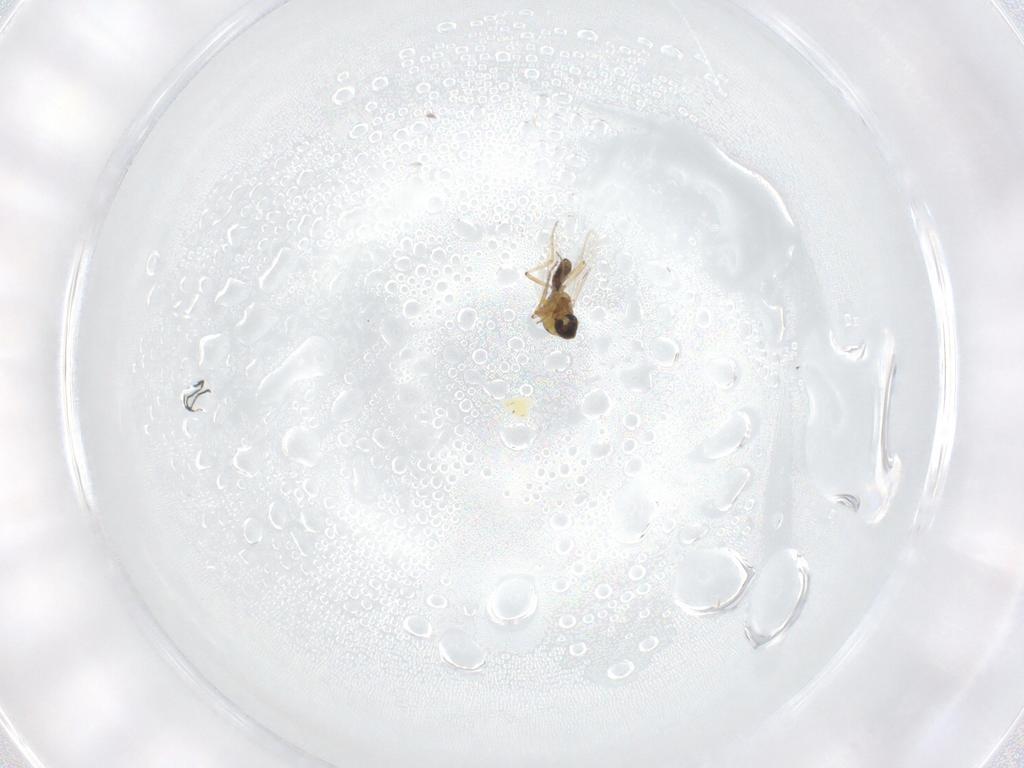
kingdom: Animalia
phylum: Arthropoda
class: Insecta
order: Diptera
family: Ceratopogonidae
